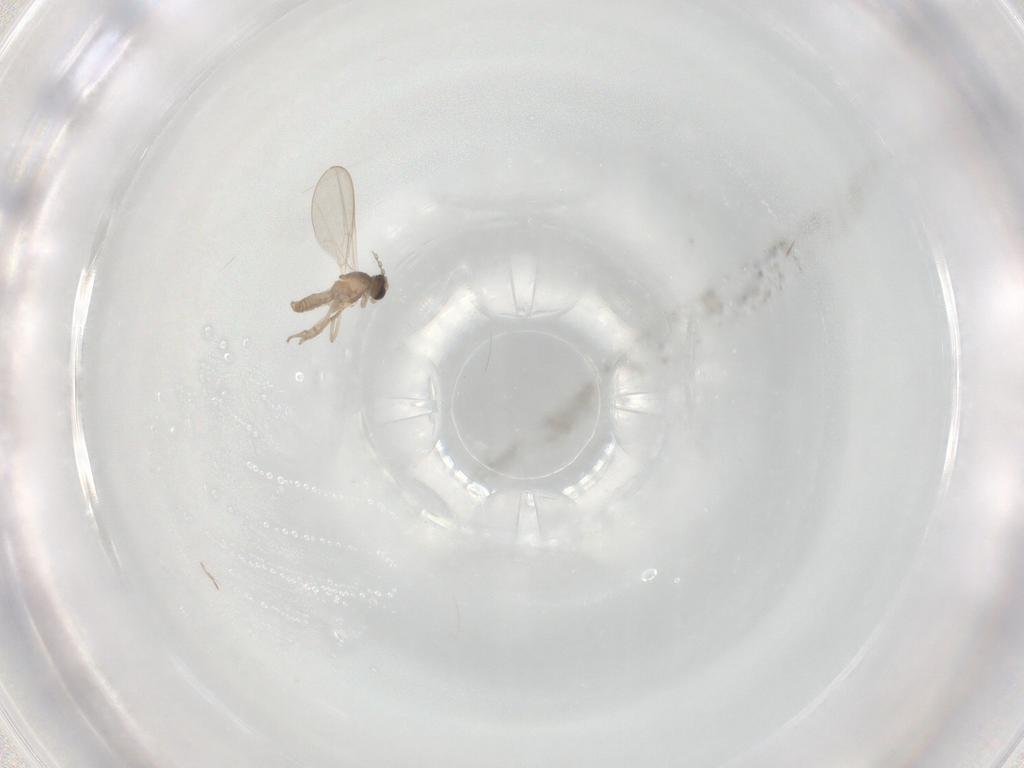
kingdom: Animalia
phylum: Arthropoda
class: Insecta
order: Diptera
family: Cecidomyiidae
